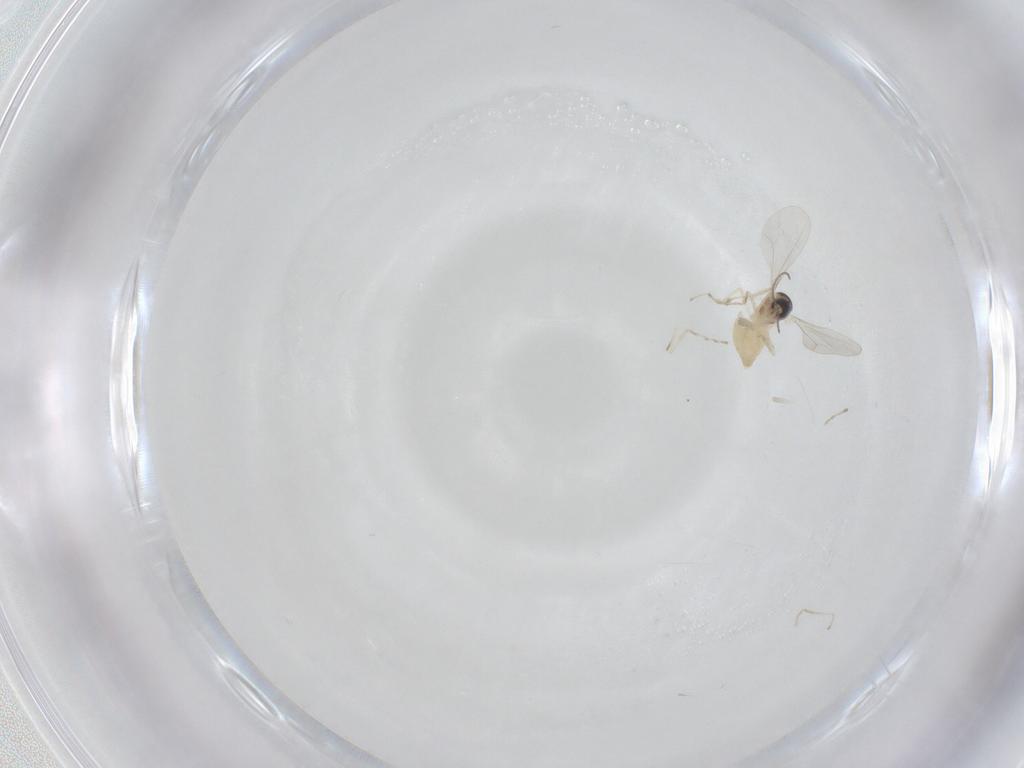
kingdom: Animalia
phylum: Arthropoda
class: Insecta
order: Diptera
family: Cecidomyiidae
